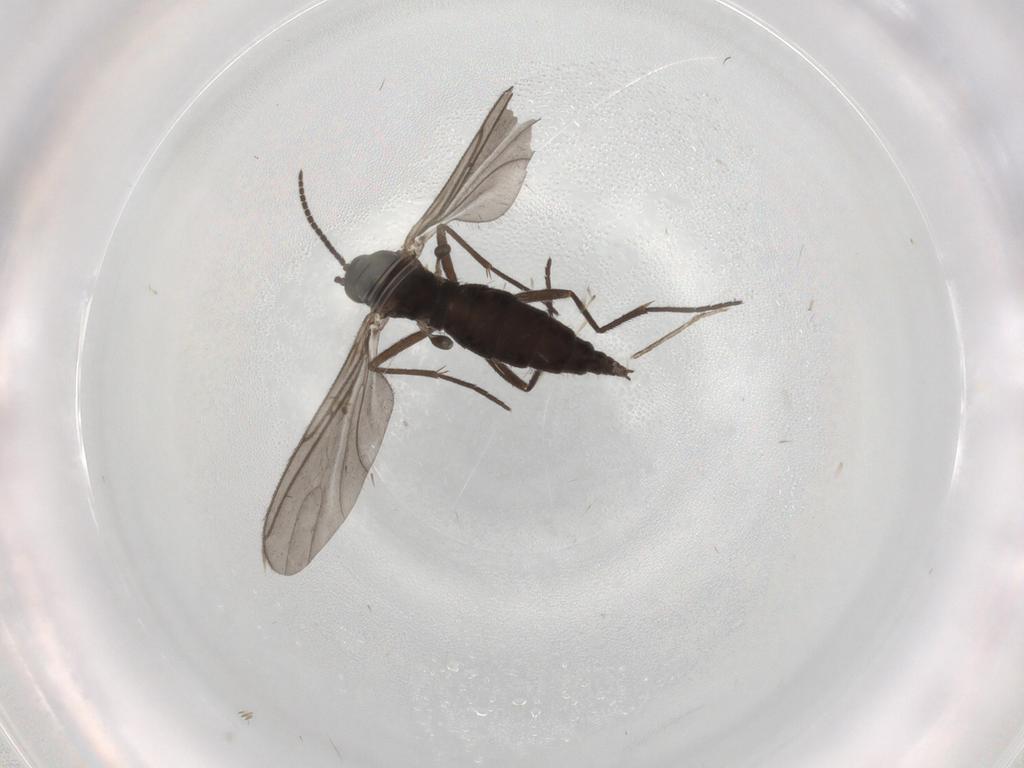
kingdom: Animalia
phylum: Arthropoda
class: Insecta
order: Diptera
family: Sciaridae
